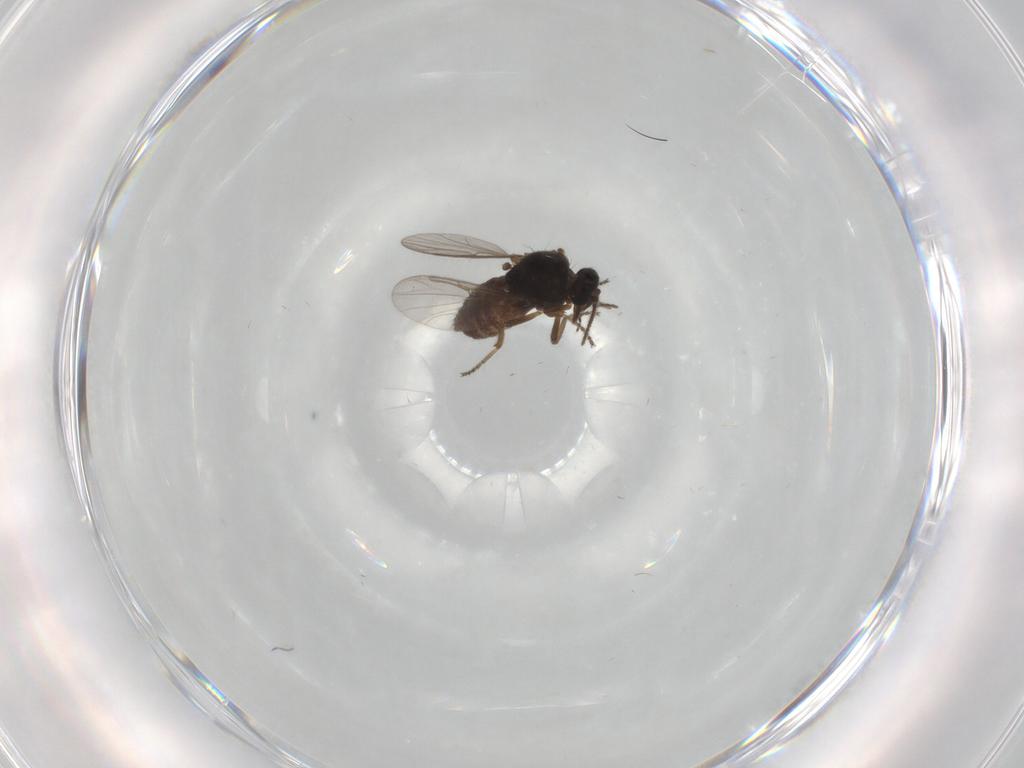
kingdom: Animalia
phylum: Arthropoda
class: Insecta
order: Diptera
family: Ceratopogonidae
